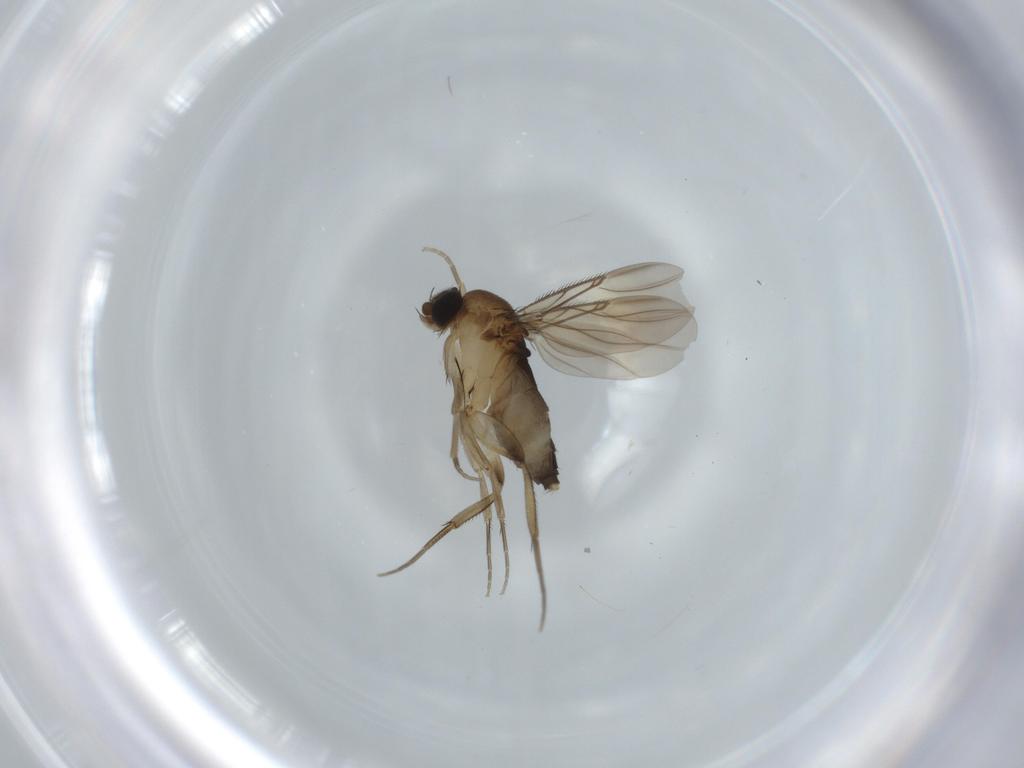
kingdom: Animalia
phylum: Arthropoda
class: Insecta
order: Diptera
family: Phoridae
